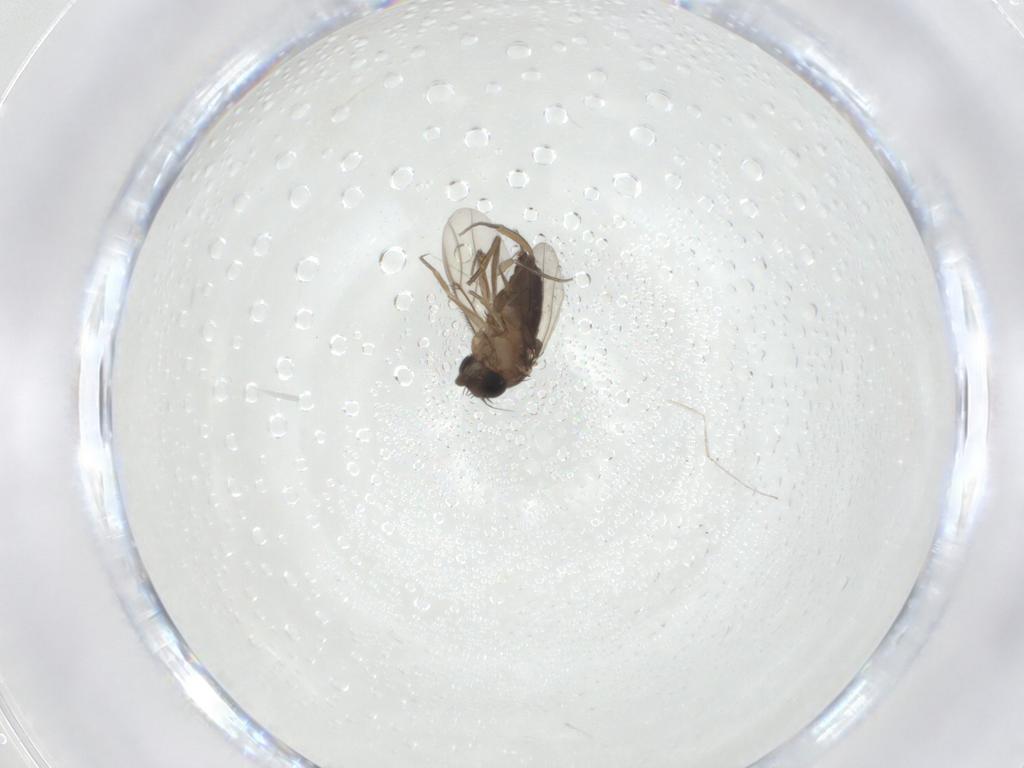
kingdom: Animalia
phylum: Arthropoda
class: Insecta
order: Diptera
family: Cecidomyiidae
